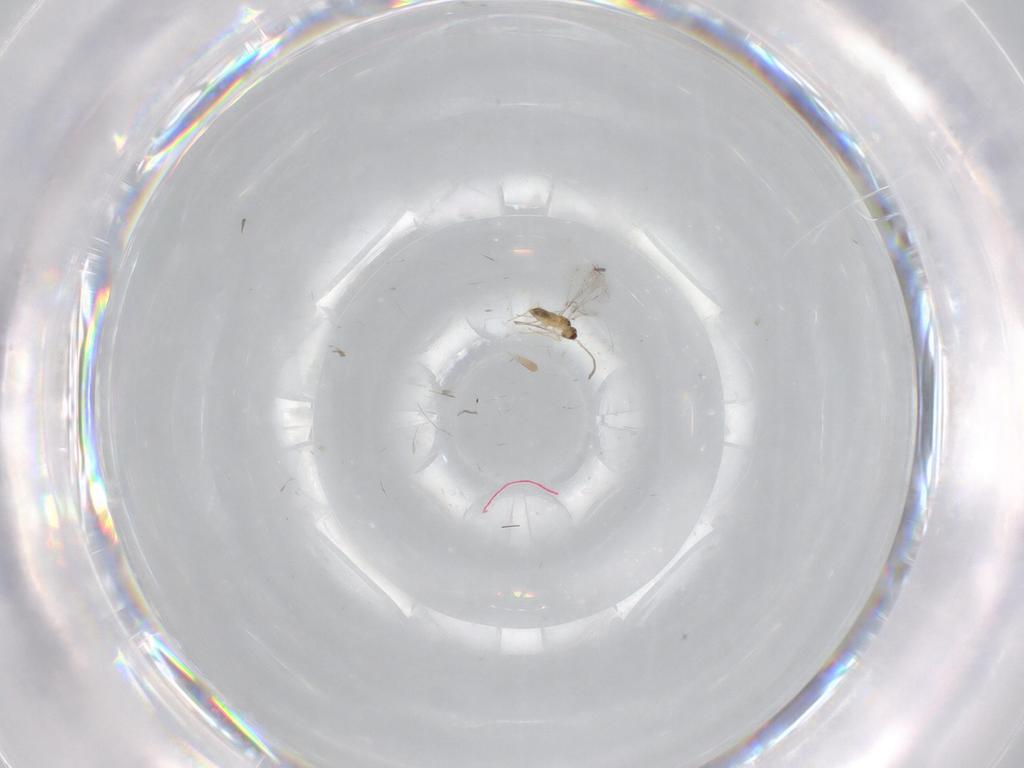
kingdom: Animalia
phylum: Arthropoda
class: Insecta
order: Hymenoptera
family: Mymaridae
